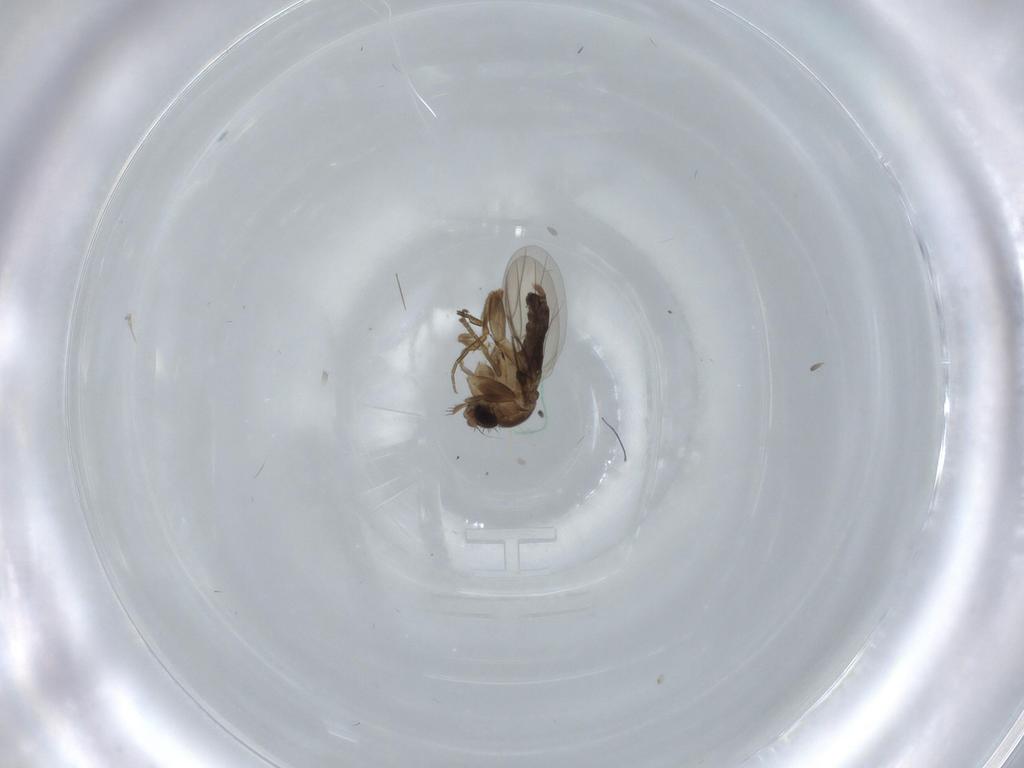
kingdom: Animalia
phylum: Arthropoda
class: Insecta
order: Diptera
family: Phoridae
